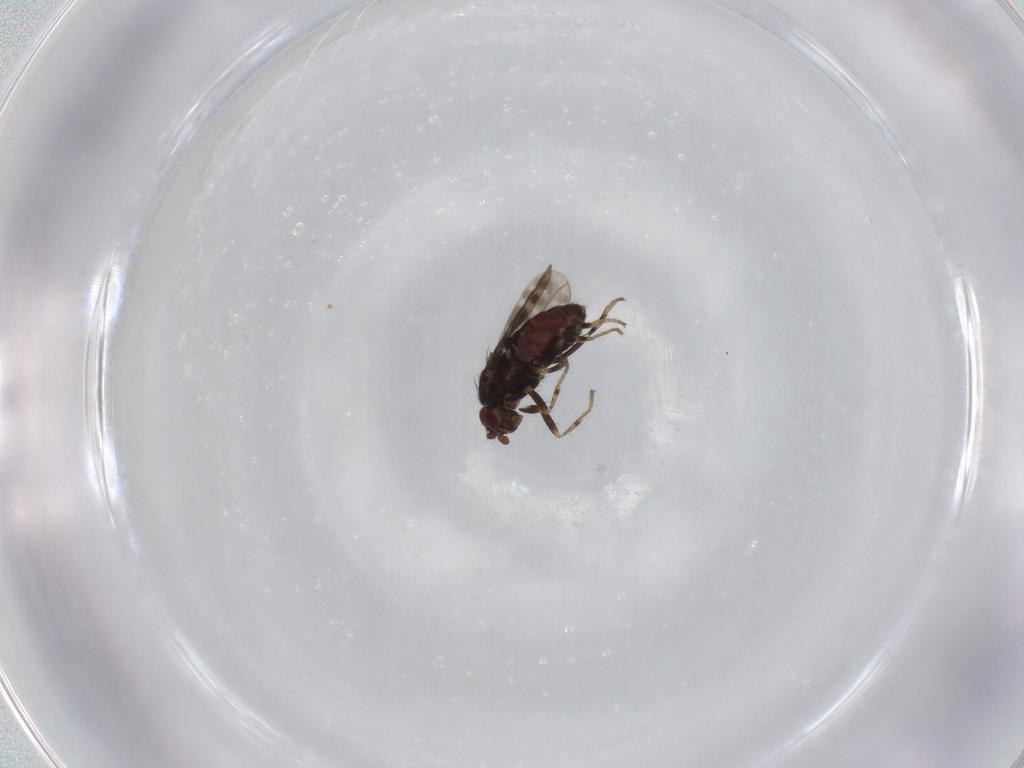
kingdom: Animalia
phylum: Arthropoda
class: Insecta
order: Diptera
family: Sphaeroceridae
